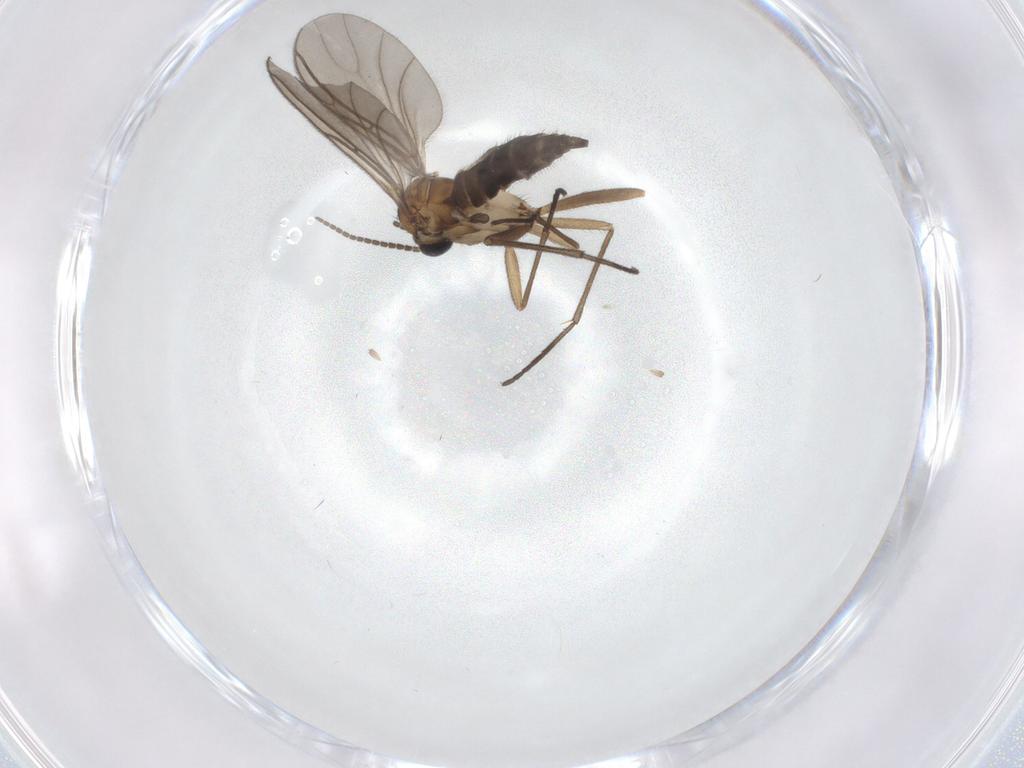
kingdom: Animalia
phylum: Arthropoda
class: Insecta
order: Diptera
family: Sciaridae
